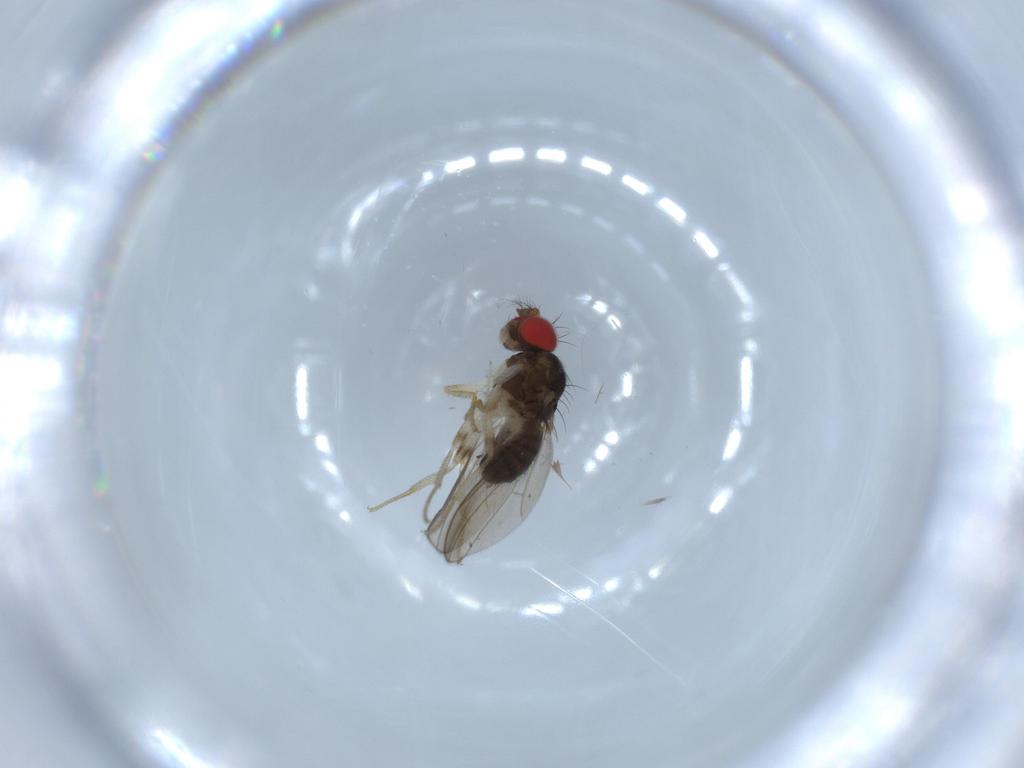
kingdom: Animalia
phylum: Arthropoda
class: Insecta
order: Diptera
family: Drosophilidae
